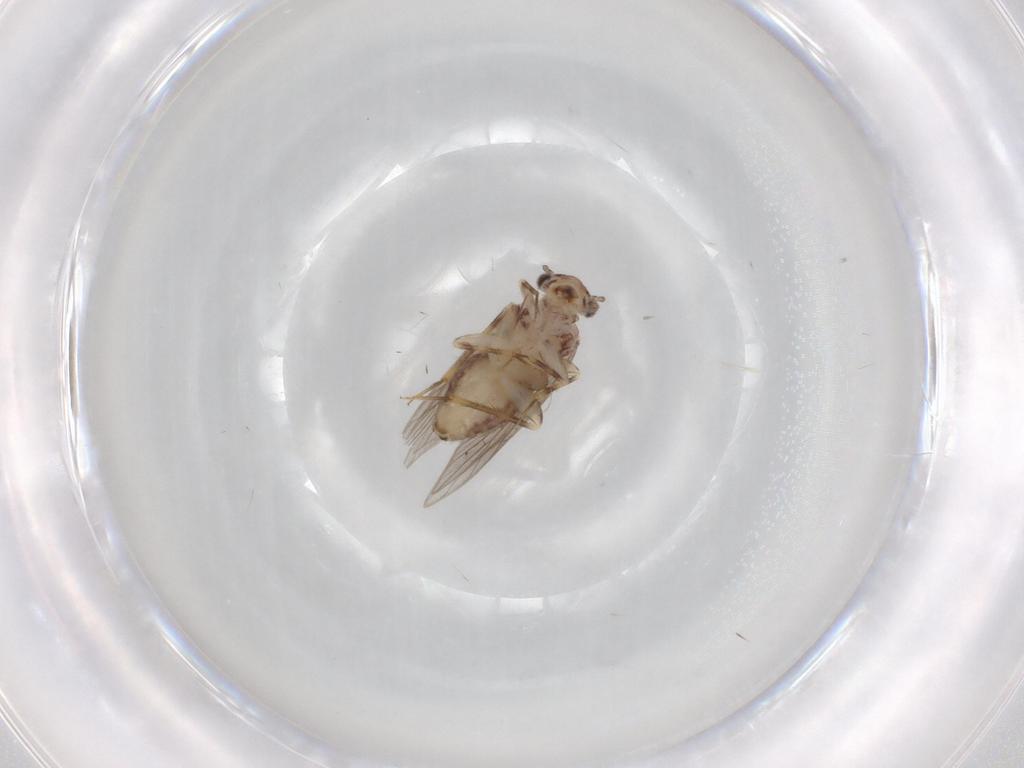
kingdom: Animalia
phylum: Arthropoda
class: Insecta
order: Psocodea
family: Lepidopsocidae
